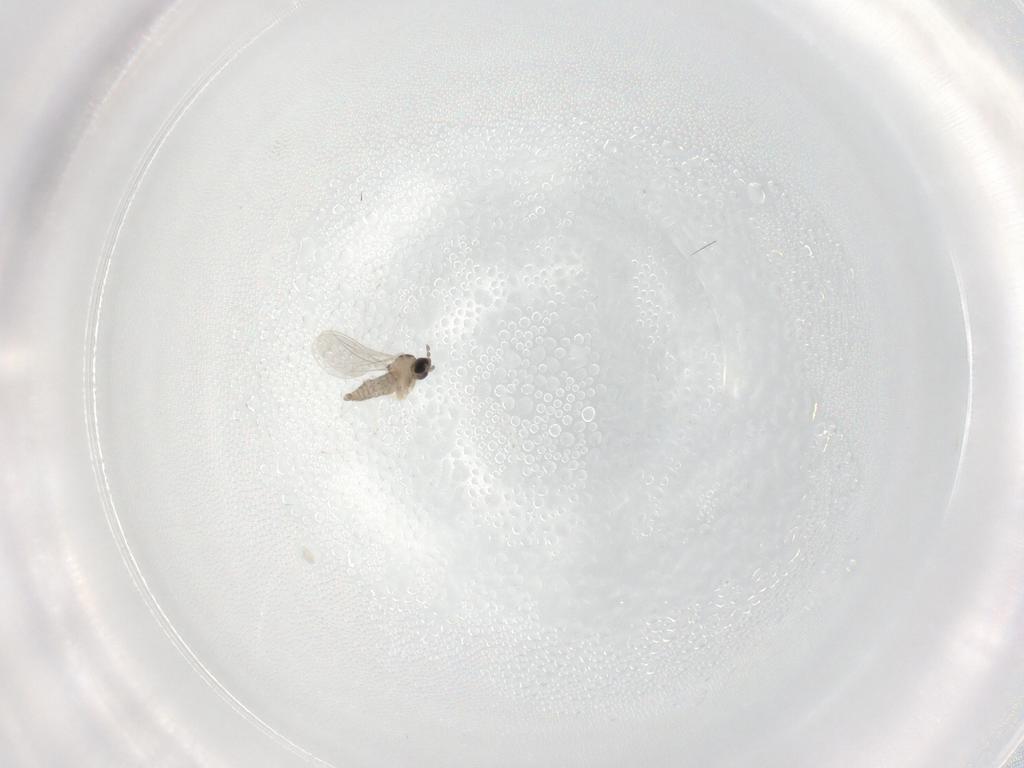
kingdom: Animalia
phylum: Arthropoda
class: Insecta
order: Diptera
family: Cecidomyiidae
